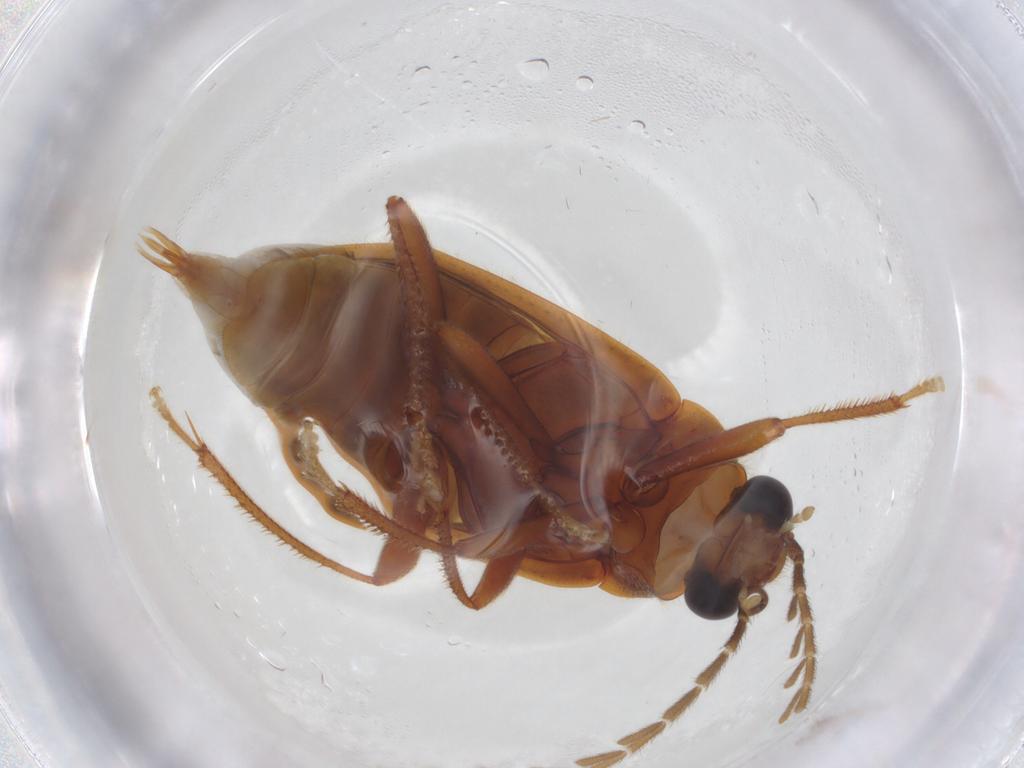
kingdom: Animalia
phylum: Arthropoda
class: Insecta
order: Coleoptera
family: Ptilodactylidae
